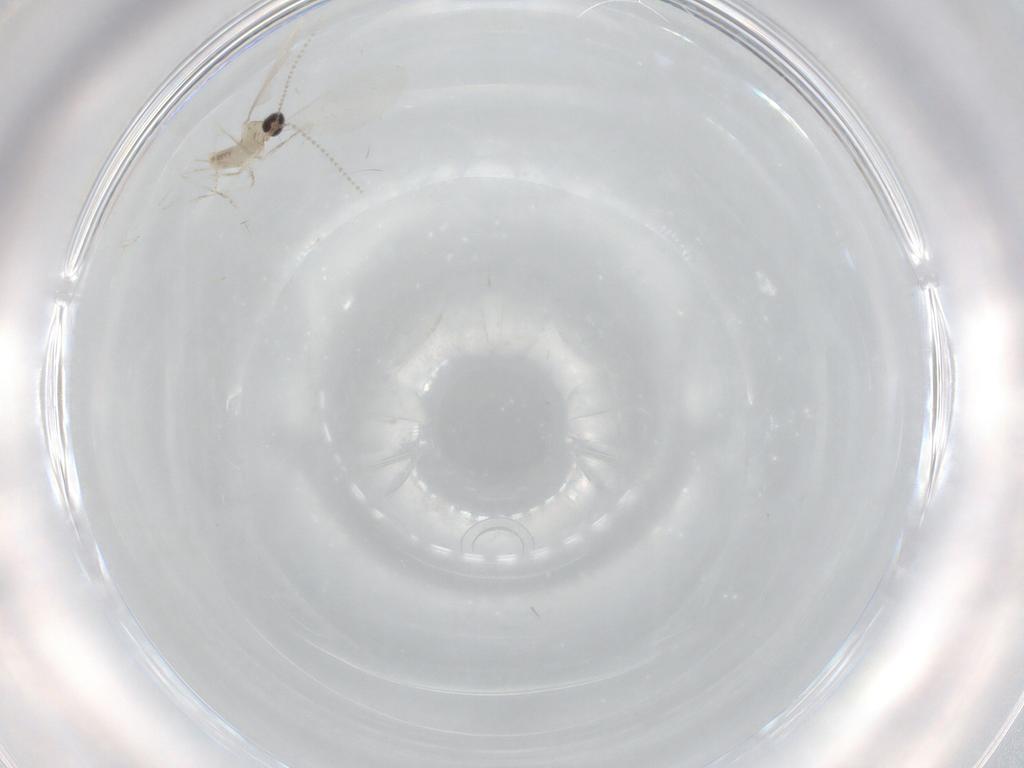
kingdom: Animalia
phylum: Arthropoda
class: Insecta
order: Diptera
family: Cecidomyiidae
